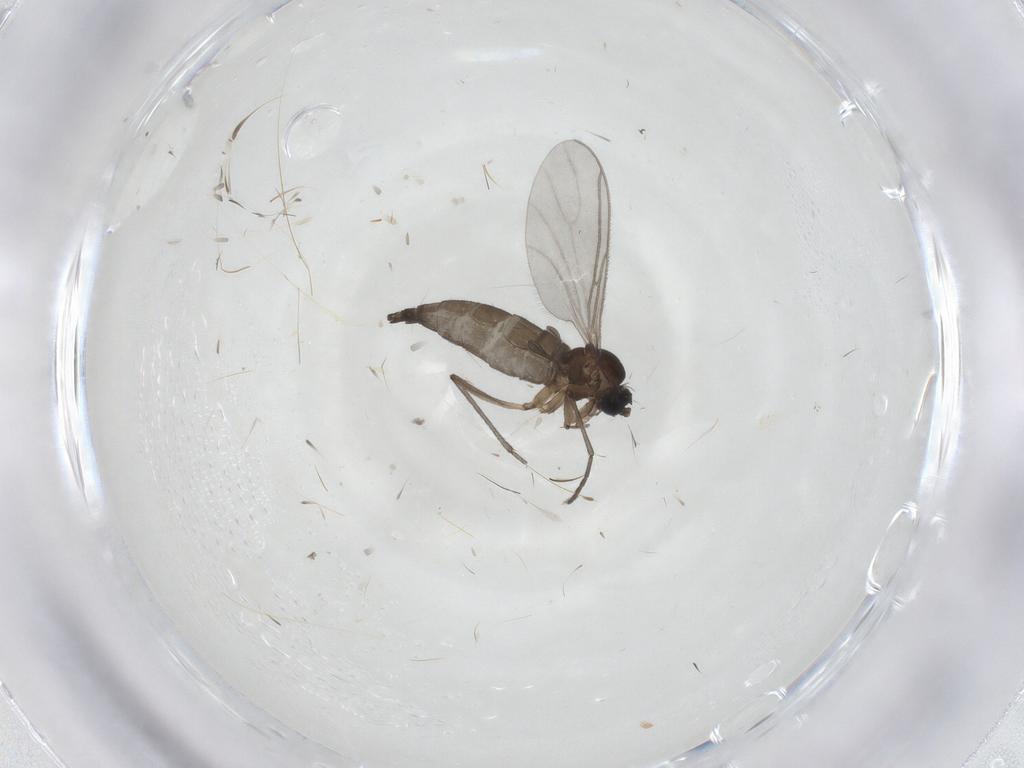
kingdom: Animalia
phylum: Arthropoda
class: Insecta
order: Diptera
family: Sciaridae
